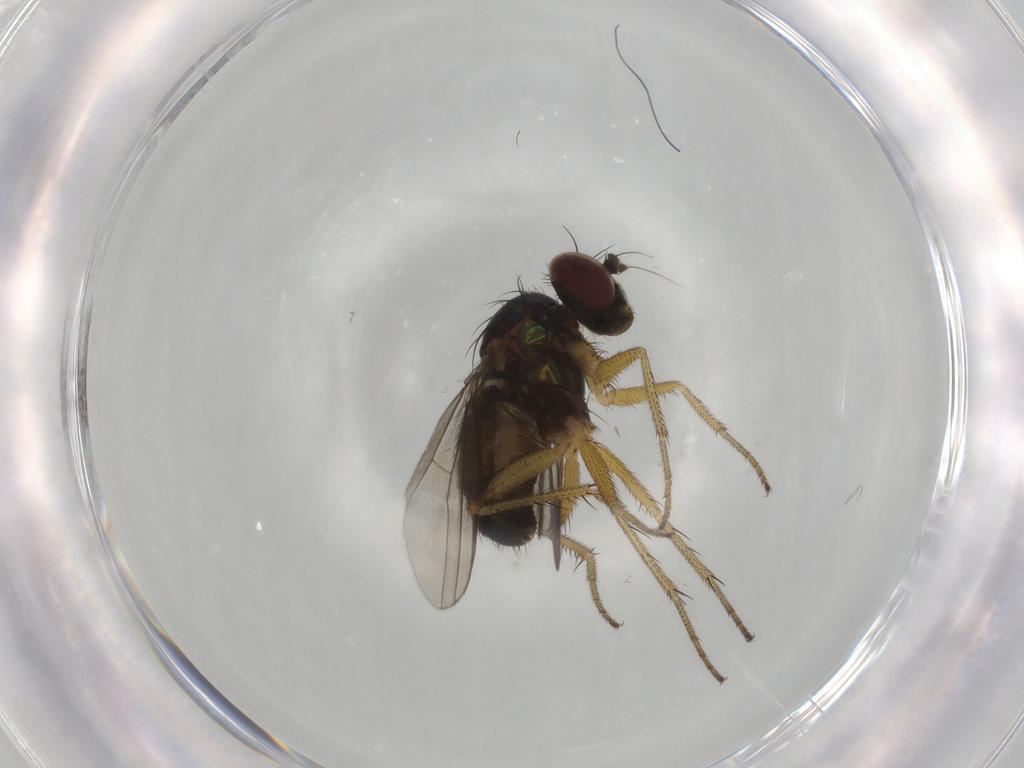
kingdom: Animalia
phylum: Arthropoda
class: Insecta
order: Diptera
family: Dolichopodidae
